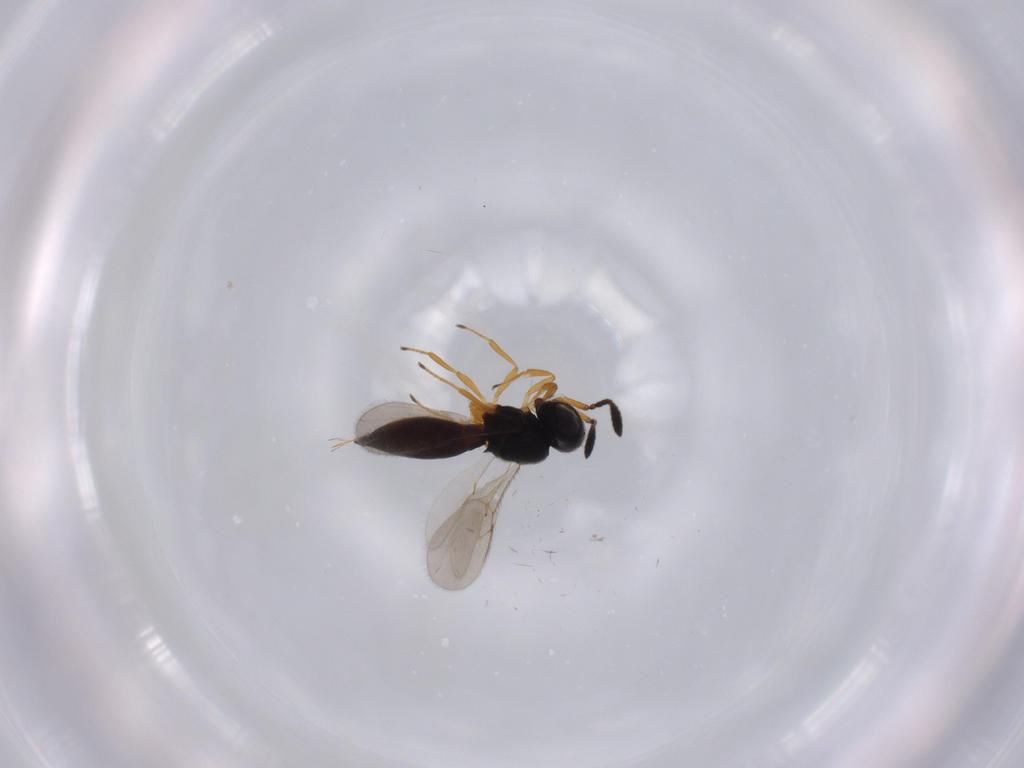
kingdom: Animalia
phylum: Arthropoda
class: Insecta
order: Hymenoptera
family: Scelionidae
